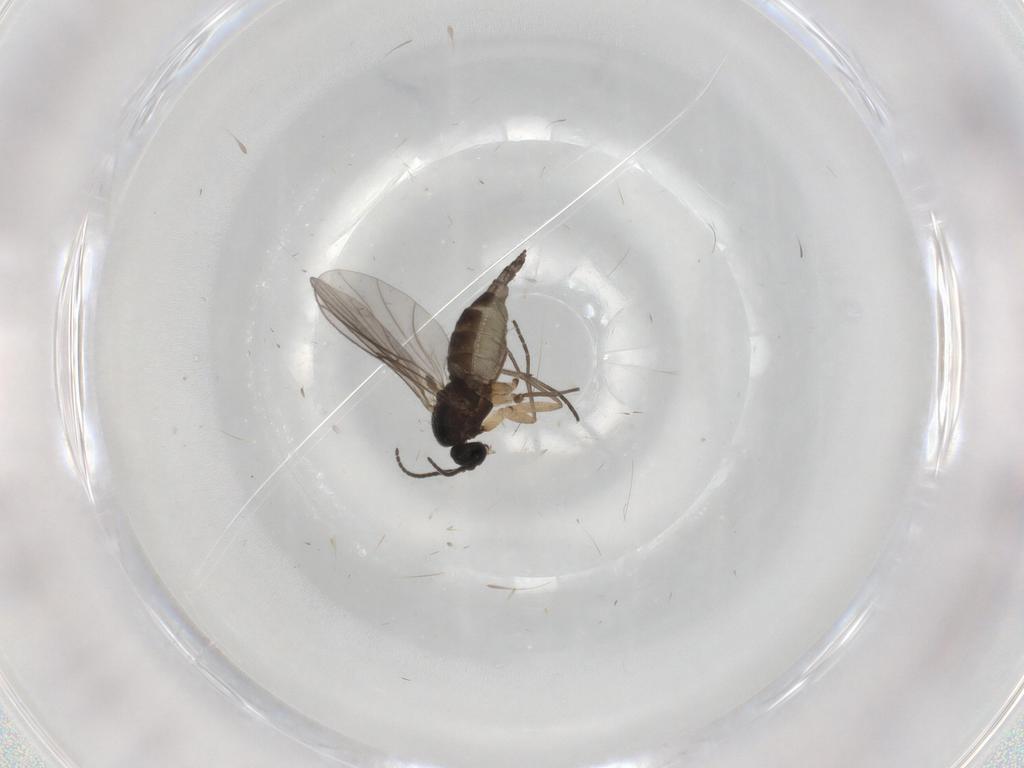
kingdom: Animalia
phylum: Arthropoda
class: Insecta
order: Diptera
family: Sciaridae
